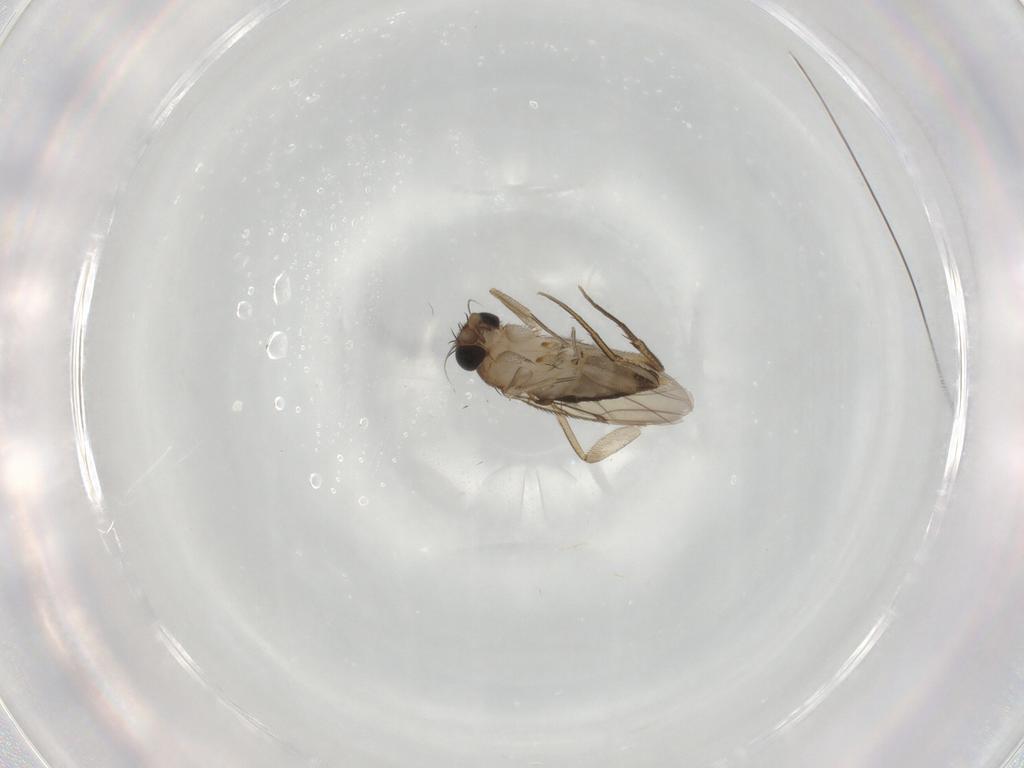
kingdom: Animalia
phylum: Arthropoda
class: Insecta
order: Diptera
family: Phoridae
